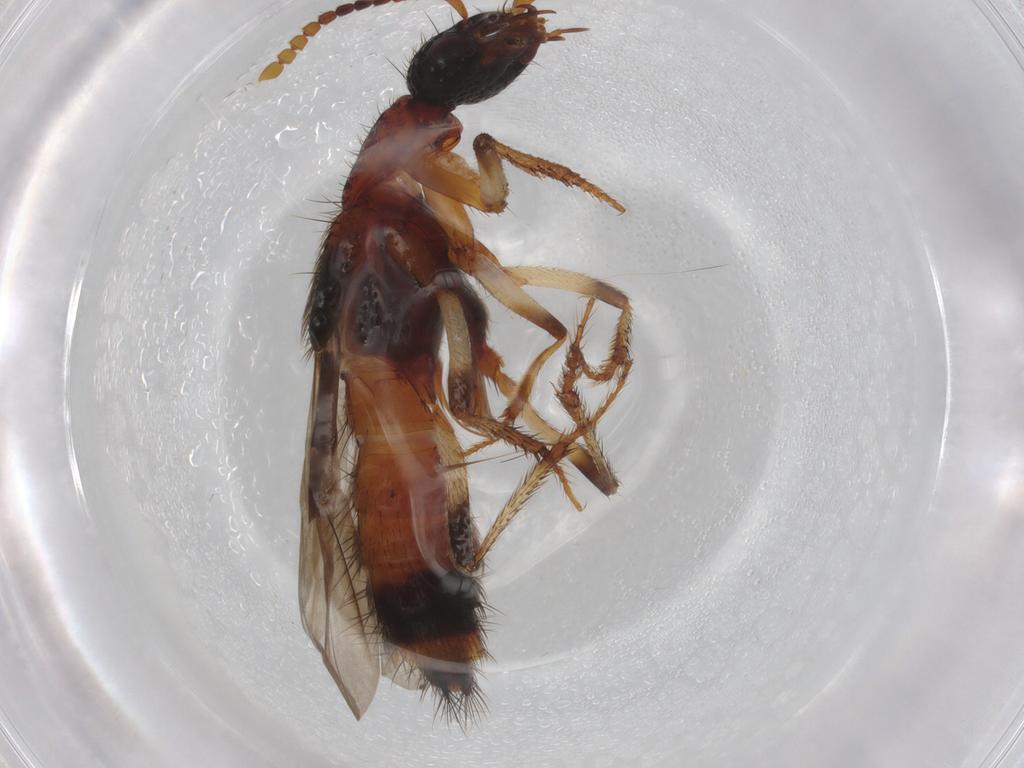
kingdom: Animalia
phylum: Arthropoda
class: Insecta
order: Coleoptera
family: Staphylinidae
